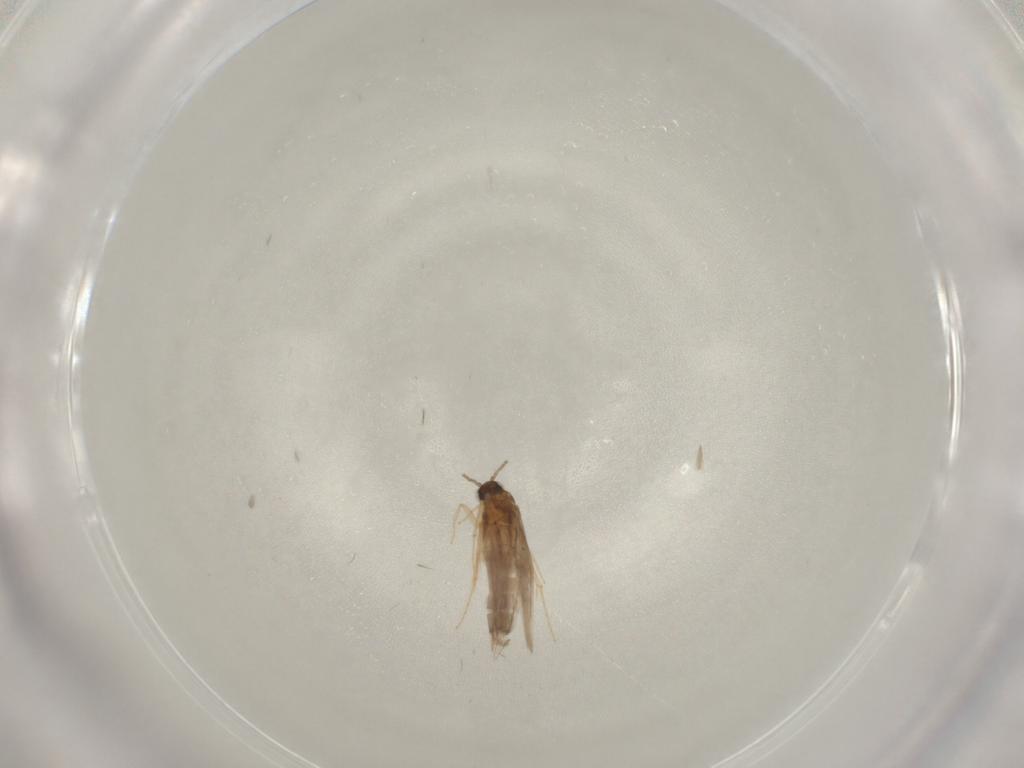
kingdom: Animalia
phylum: Arthropoda
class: Insecta
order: Trichoptera
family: Hydroptilidae
